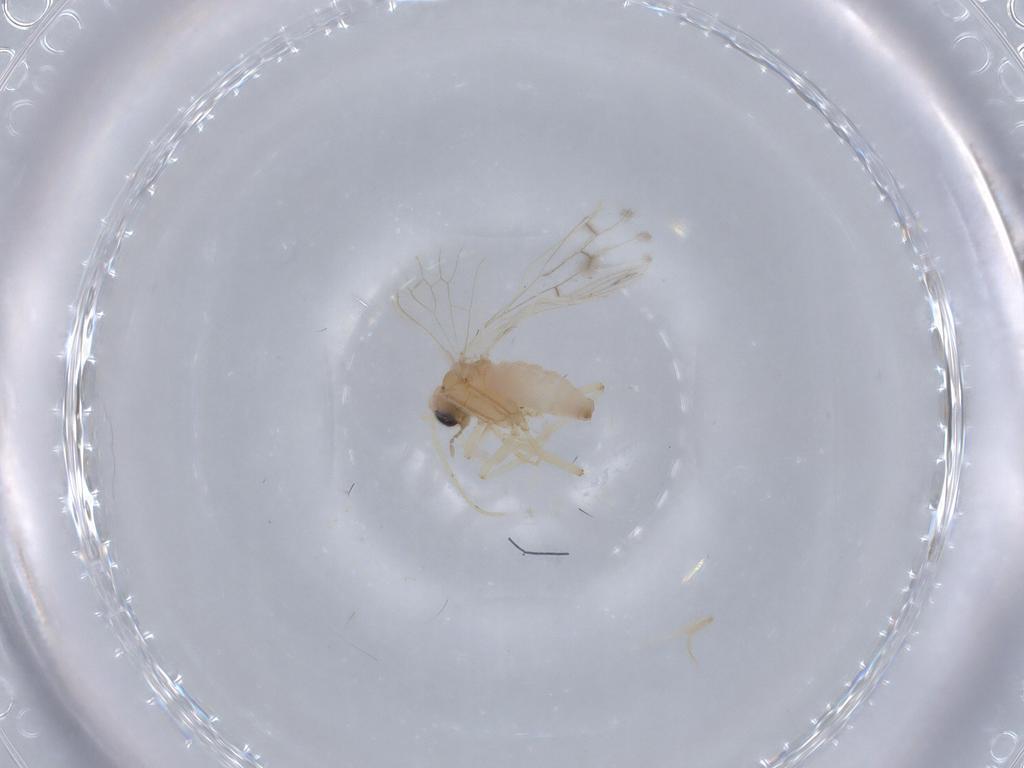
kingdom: Animalia
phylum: Arthropoda
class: Insecta
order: Neuroptera
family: Coniopterygidae
